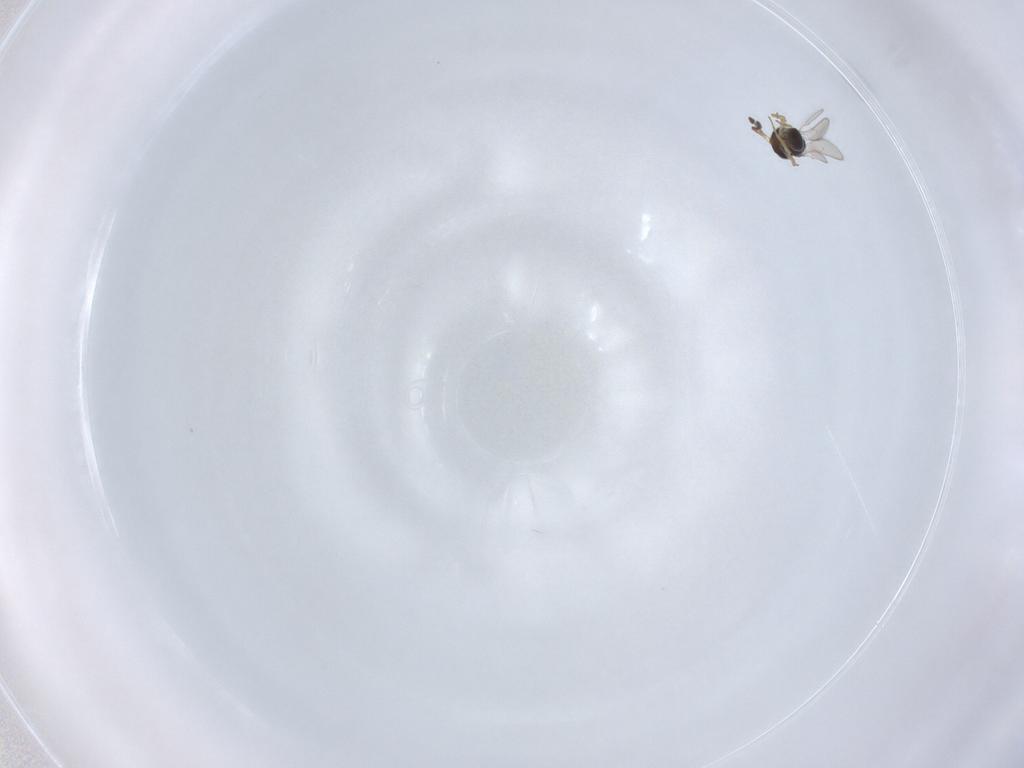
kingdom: Animalia
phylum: Arthropoda
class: Insecta
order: Hymenoptera
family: Scelionidae
